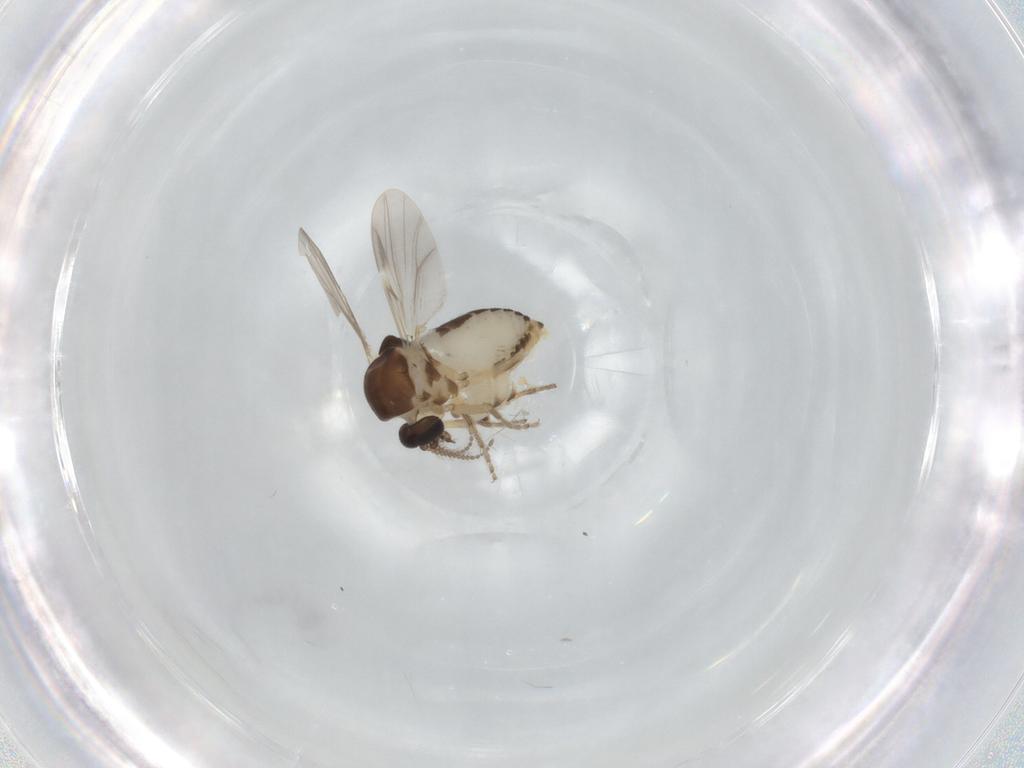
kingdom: Animalia
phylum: Arthropoda
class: Insecta
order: Diptera
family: Ceratopogonidae
